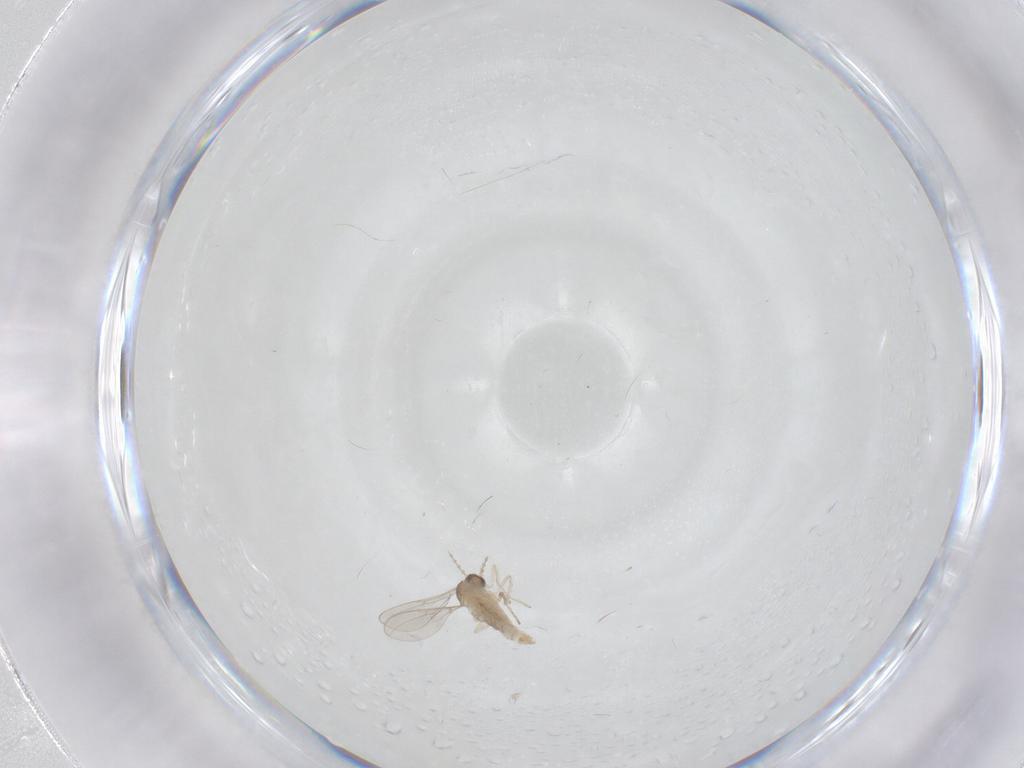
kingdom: Animalia
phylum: Arthropoda
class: Insecta
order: Diptera
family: Cecidomyiidae
